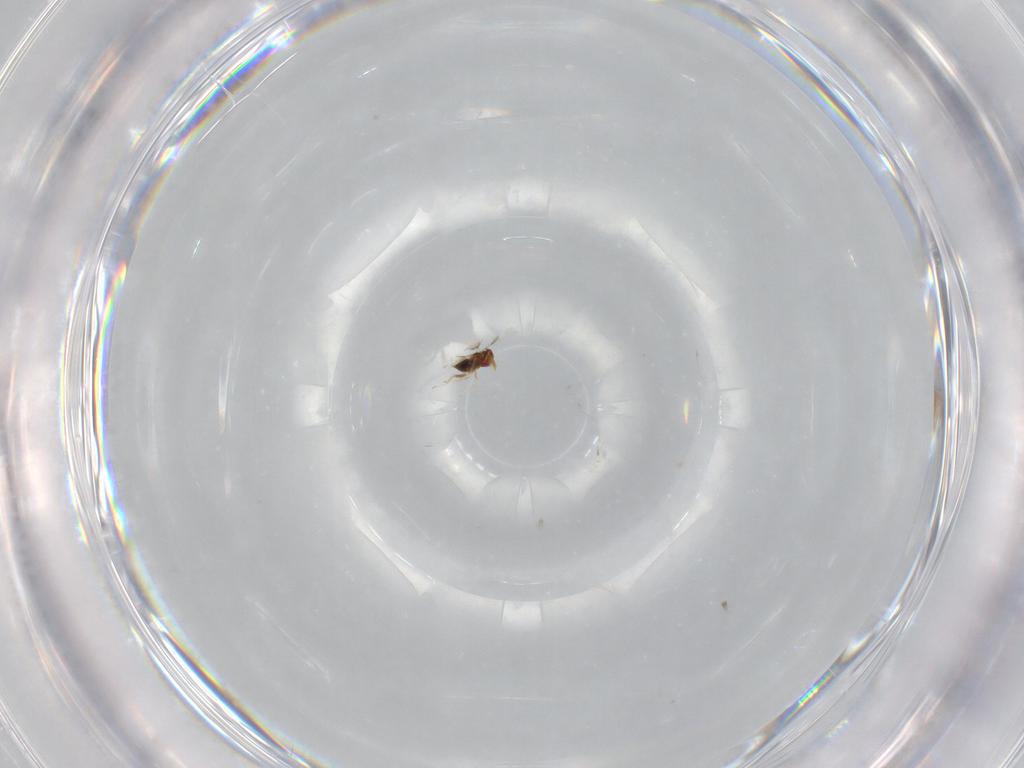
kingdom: Animalia
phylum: Arthropoda
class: Insecta
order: Hymenoptera
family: Trichogrammatidae
